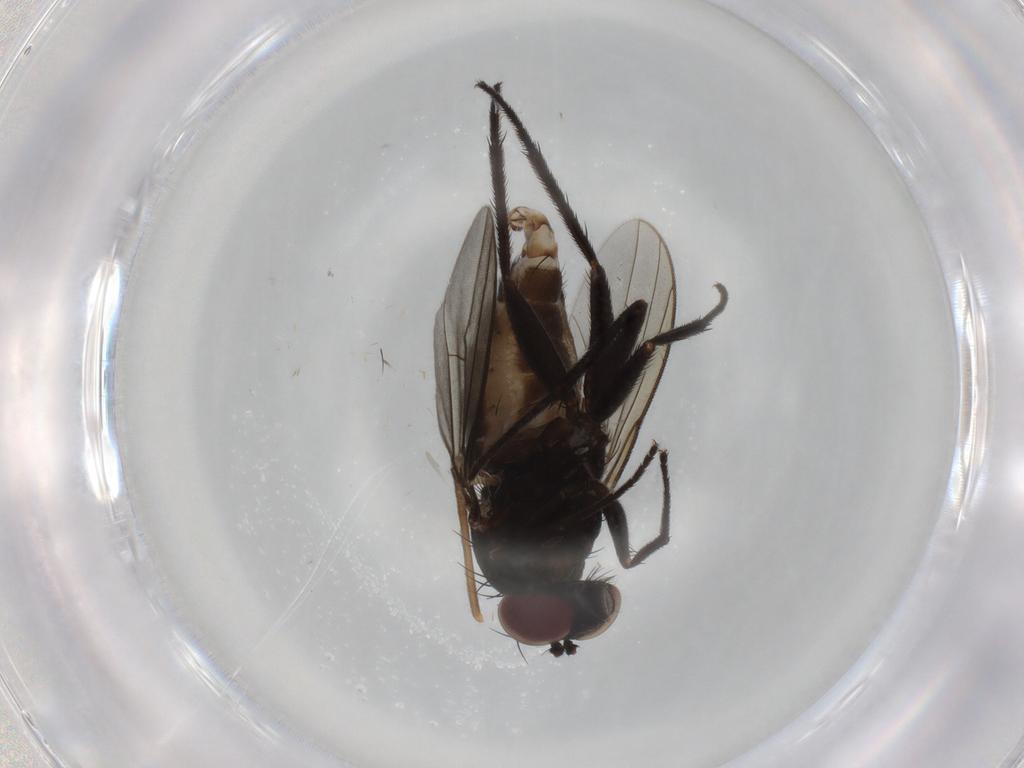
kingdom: Animalia
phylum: Arthropoda
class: Insecta
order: Diptera
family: Dolichopodidae
